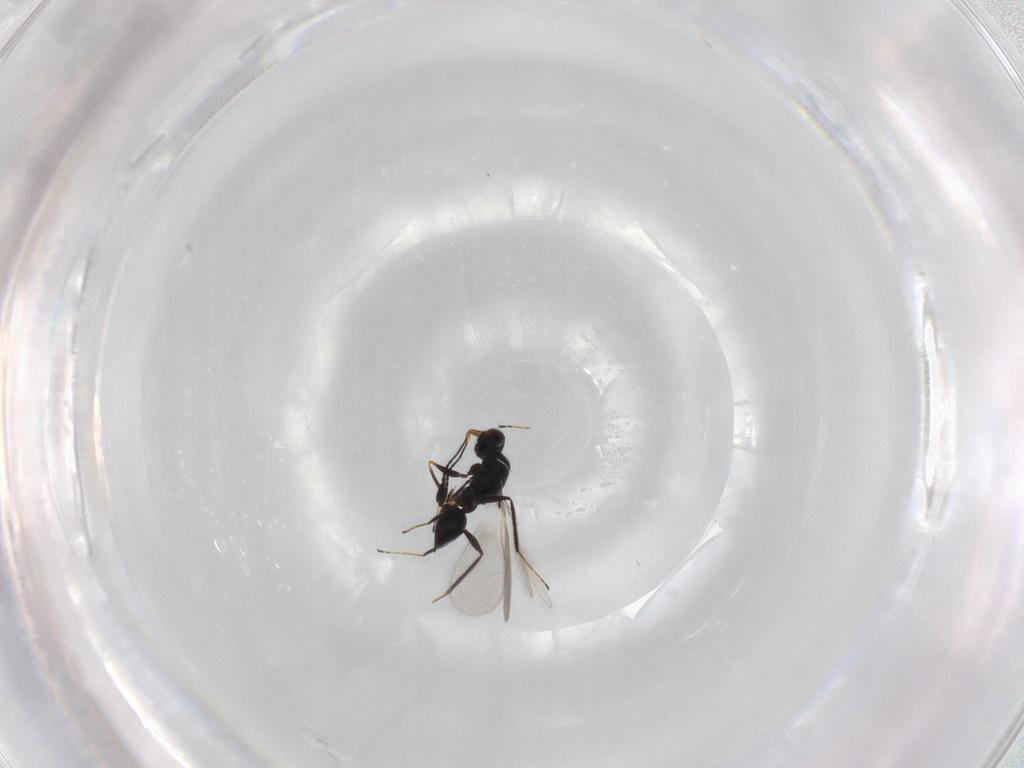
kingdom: Animalia
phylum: Arthropoda
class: Insecta
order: Hymenoptera
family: Mymaridae
